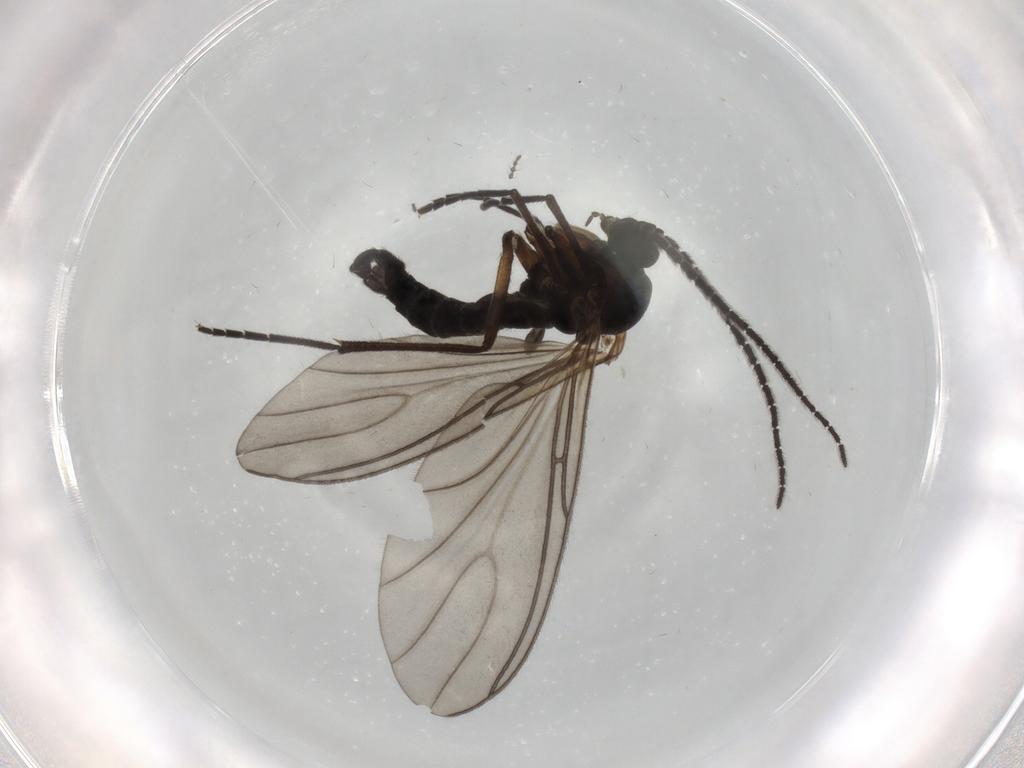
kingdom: Animalia
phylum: Arthropoda
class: Insecta
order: Diptera
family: Sciaridae
